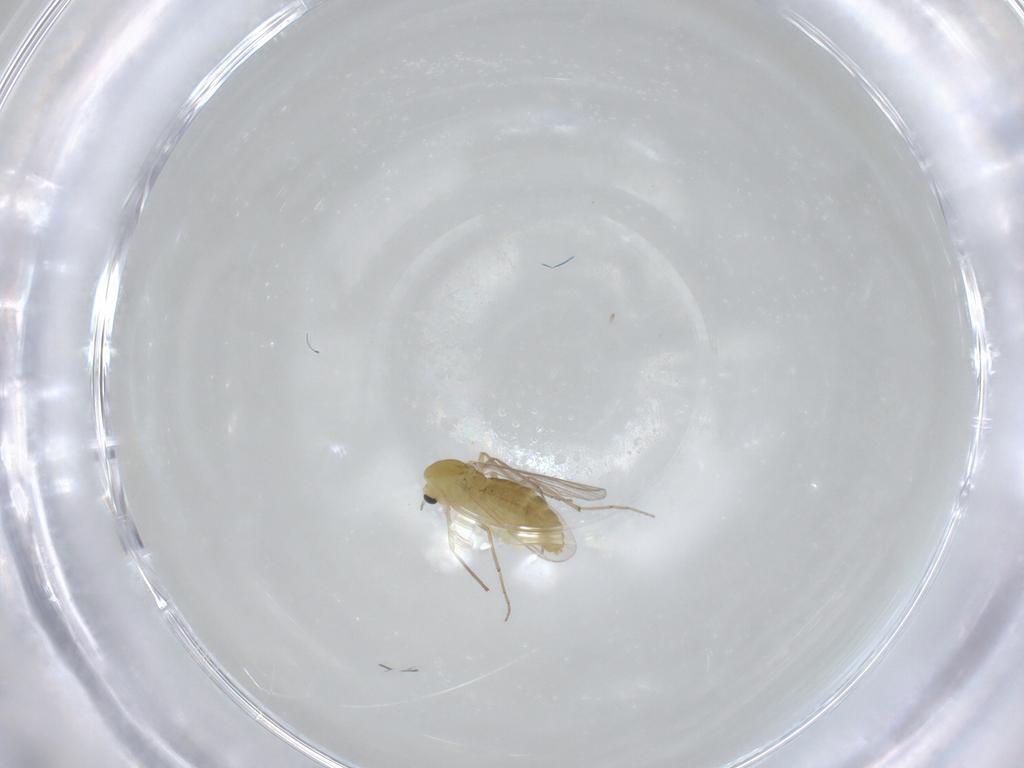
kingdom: Animalia
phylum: Arthropoda
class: Insecta
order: Diptera
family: Chironomidae
